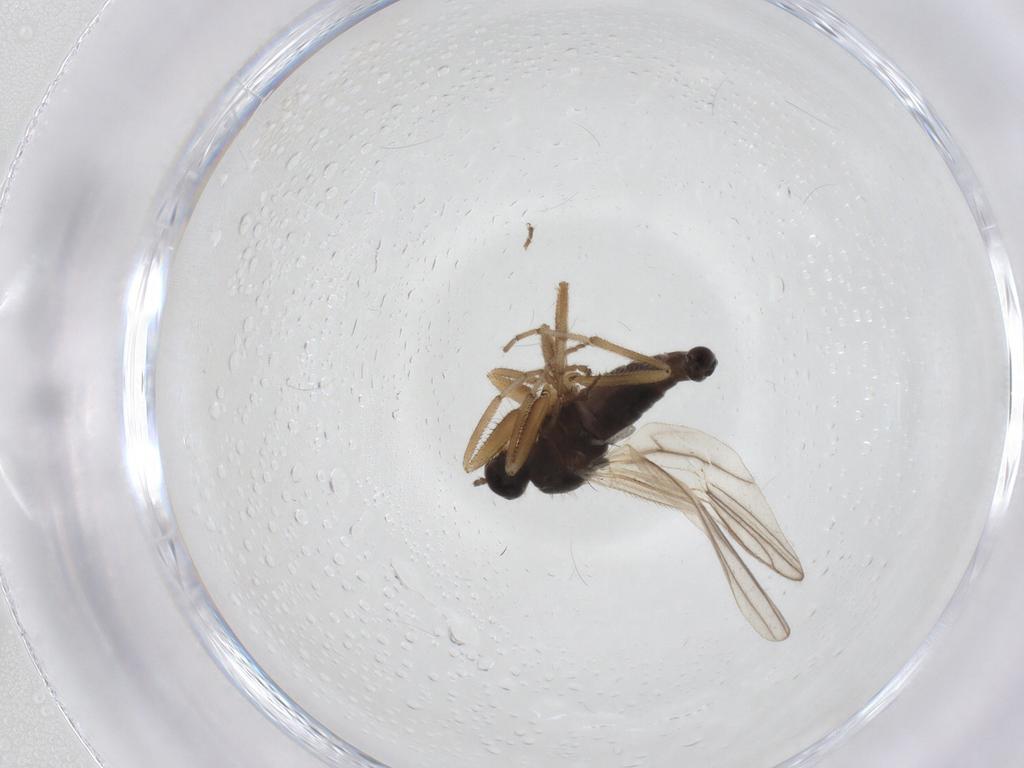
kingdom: Animalia
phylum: Arthropoda
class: Insecta
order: Diptera
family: Hybotidae
